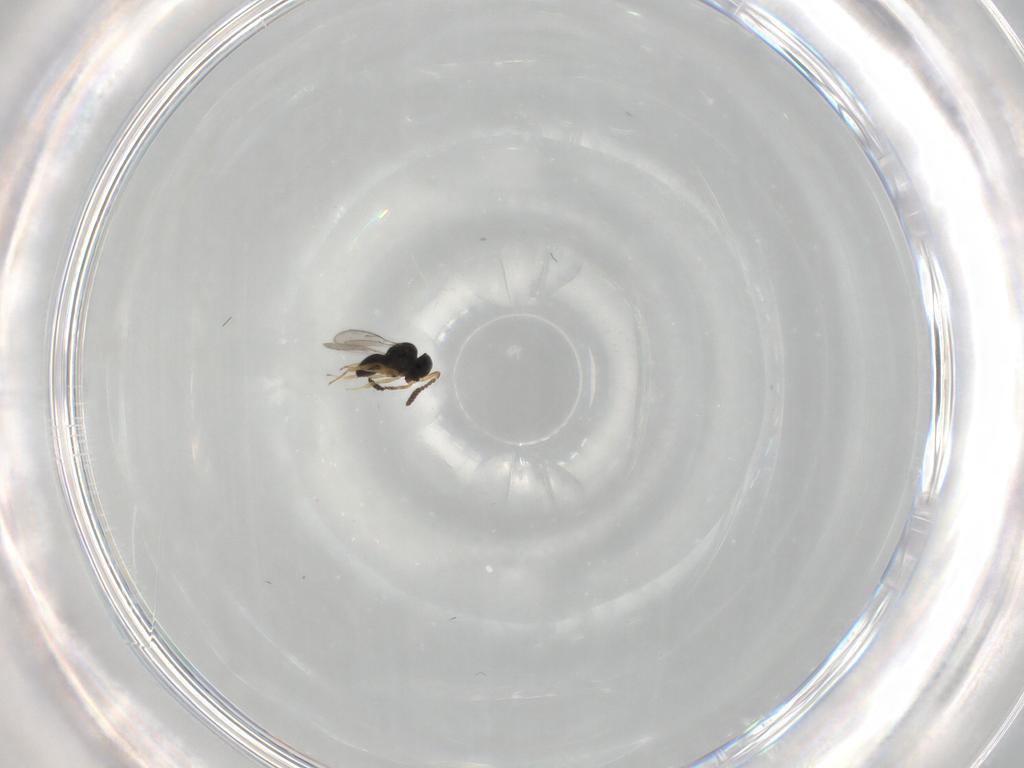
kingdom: Animalia
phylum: Arthropoda
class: Insecta
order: Hymenoptera
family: Scelionidae
